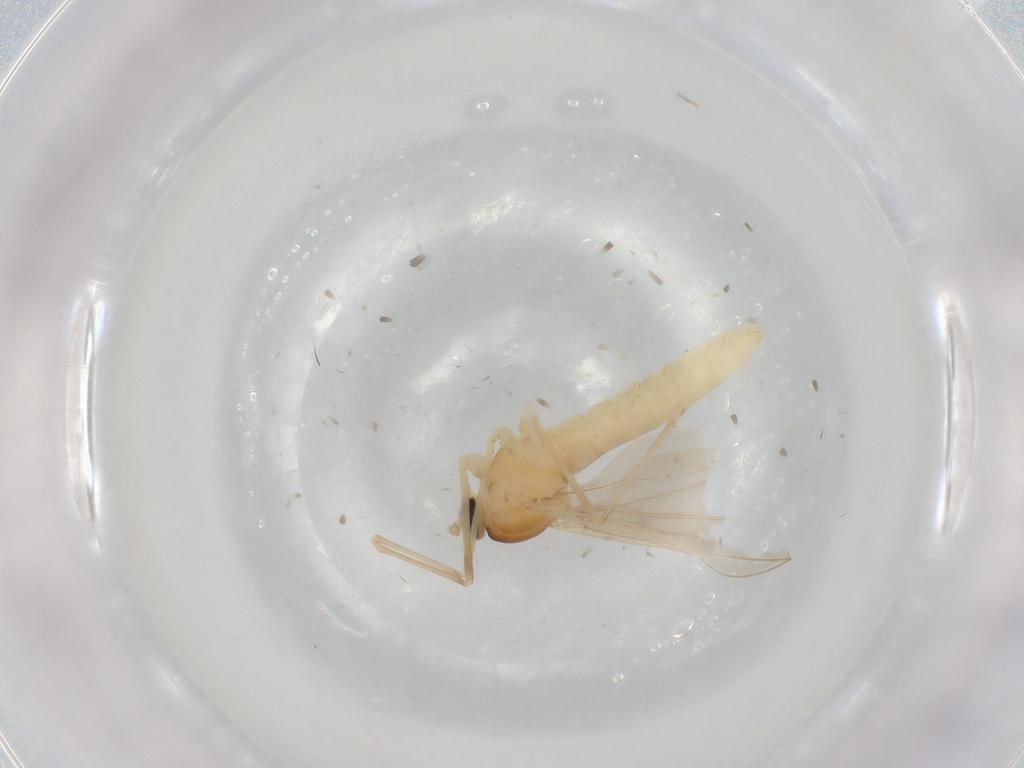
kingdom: Animalia
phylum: Arthropoda
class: Insecta
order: Diptera
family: Cecidomyiidae
